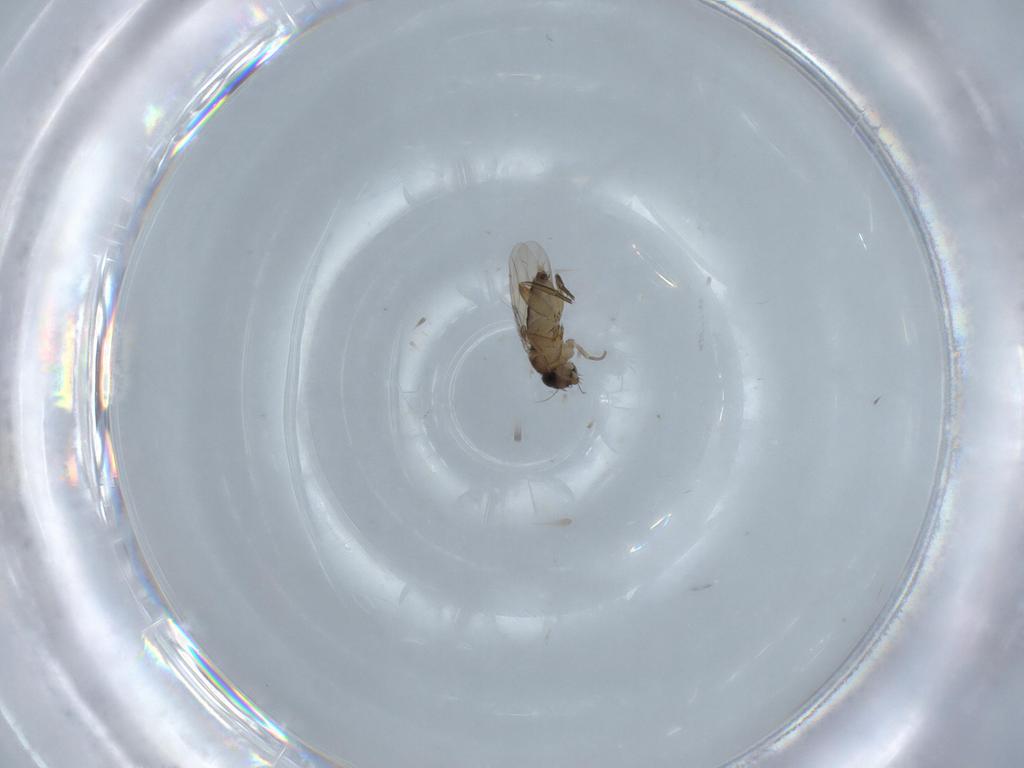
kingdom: Animalia
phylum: Arthropoda
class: Insecta
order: Diptera
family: Phoridae
